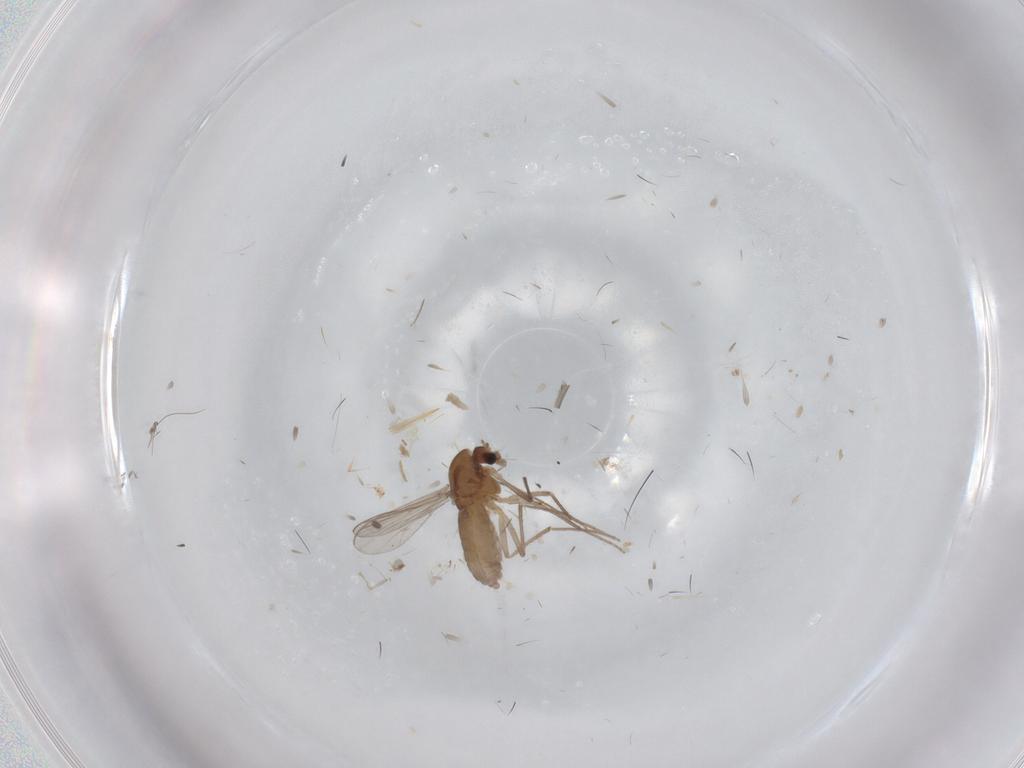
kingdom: Animalia
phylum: Arthropoda
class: Insecta
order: Diptera
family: Chironomidae
